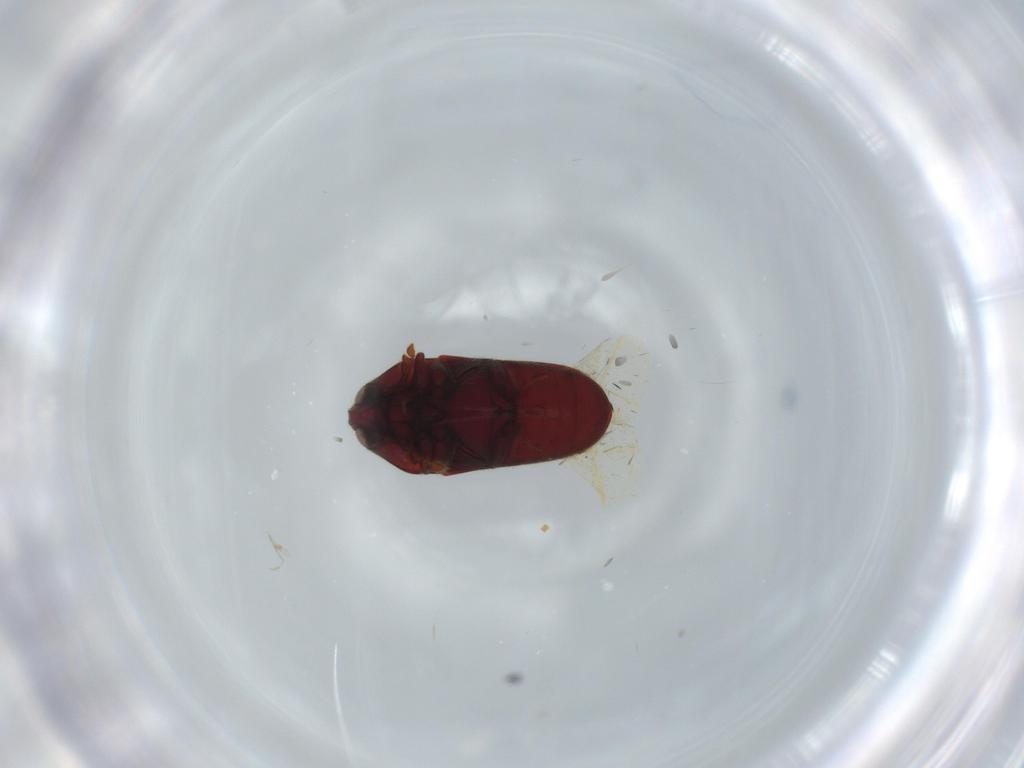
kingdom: Animalia
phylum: Arthropoda
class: Insecta
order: Coleoptera
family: Throscidae
